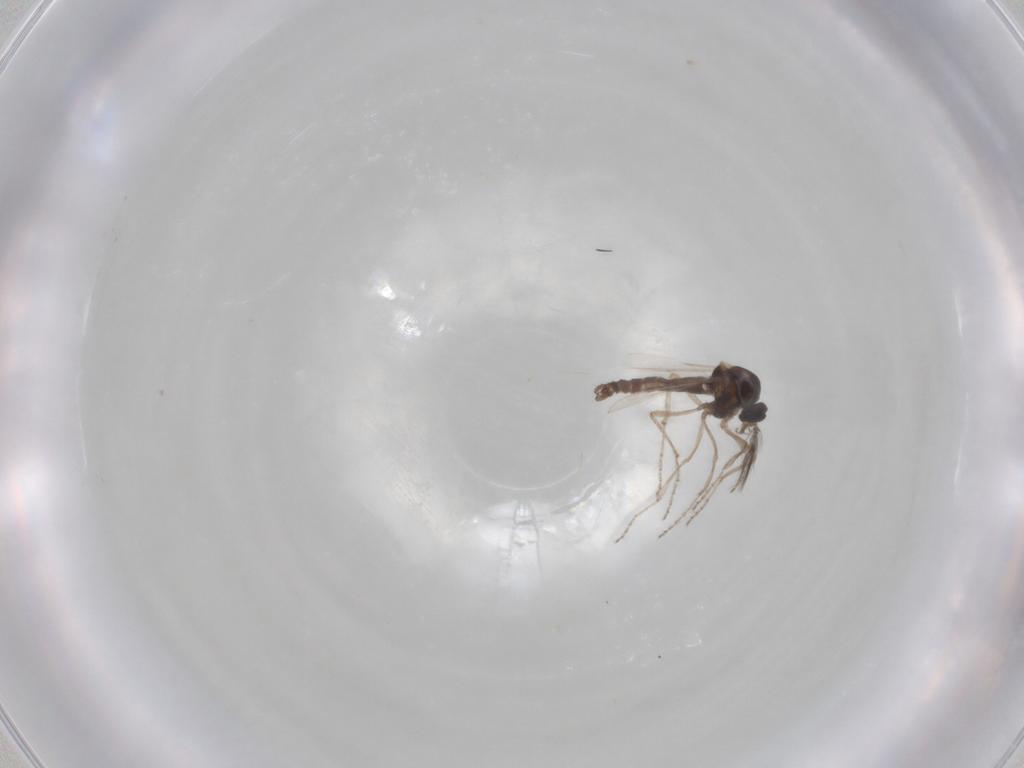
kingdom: Animalia
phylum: Arthropoda
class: Insecta
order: Diptera
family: Ceratopogonidae
